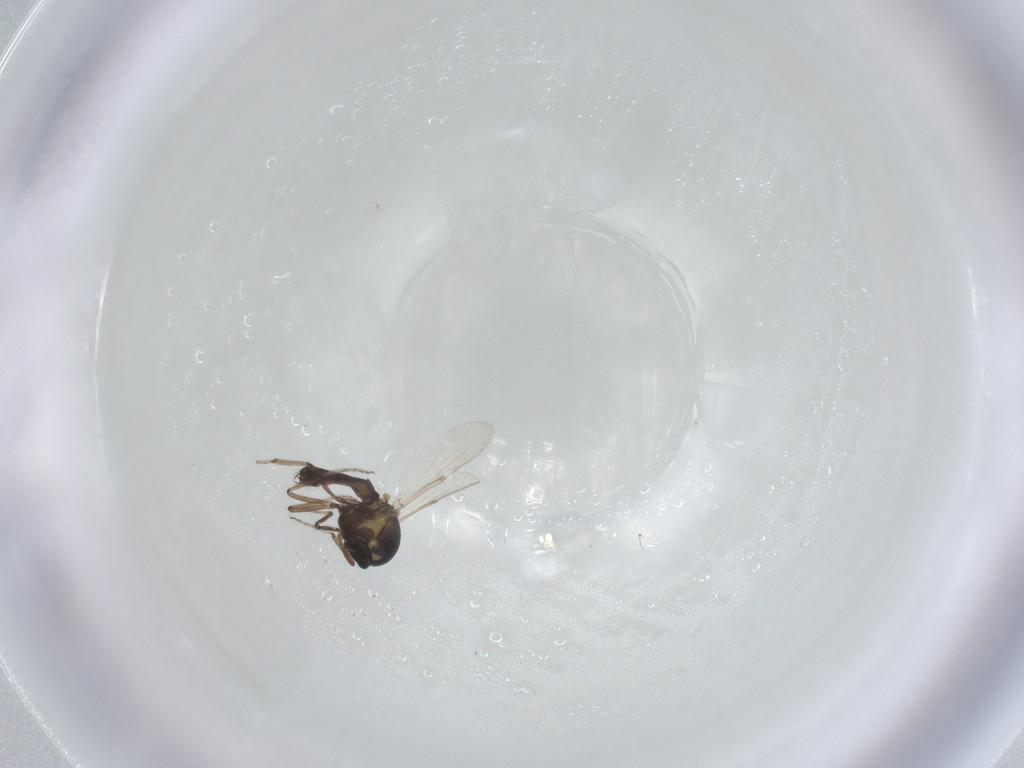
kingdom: Animalia
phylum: Arthropoda
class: Insecta
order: Diptera
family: Ceratopogonidae
